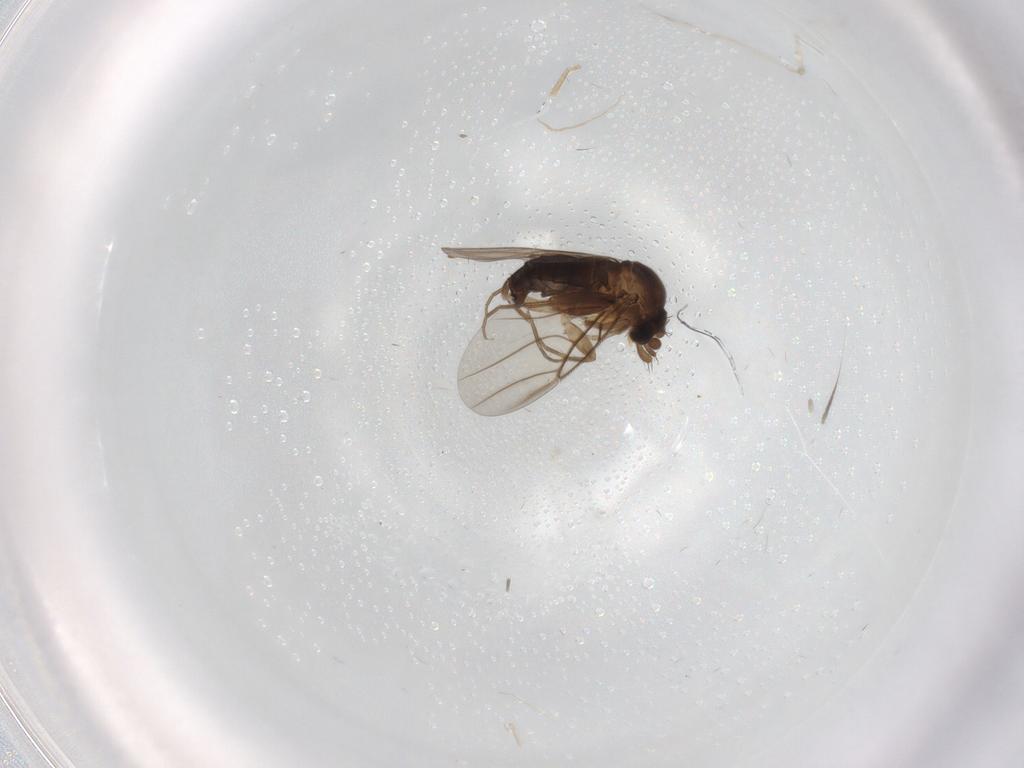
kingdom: Animalia
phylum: Arthropoda
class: Insecta
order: Diptera
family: Phoridae
